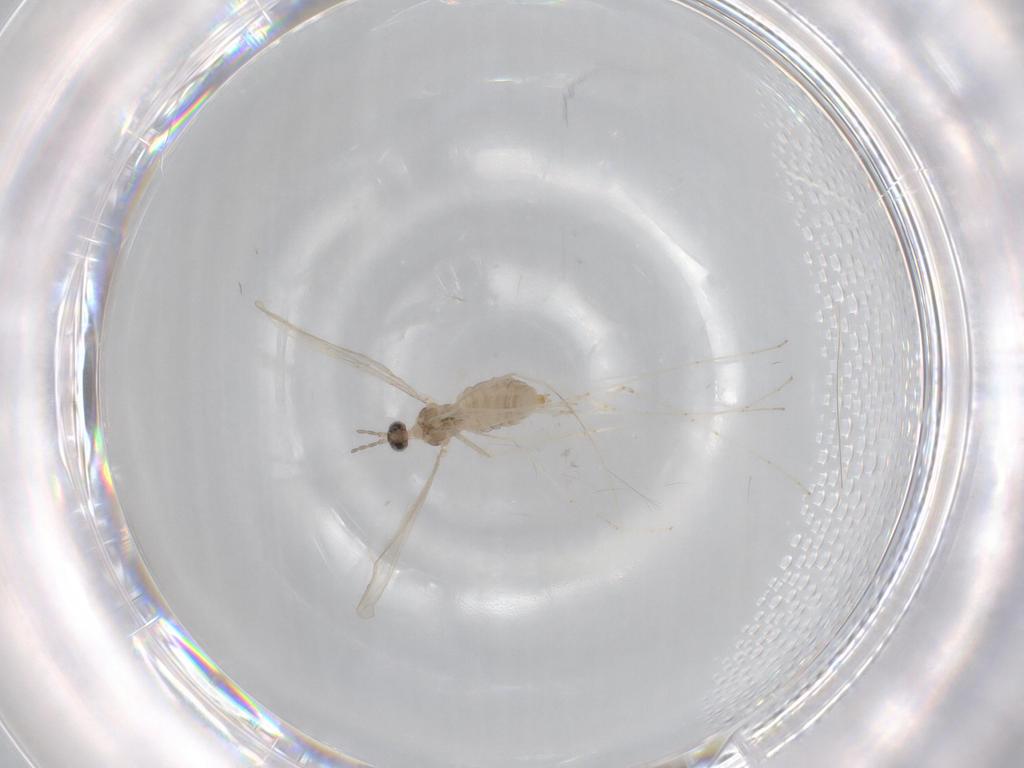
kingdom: Animalia
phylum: Arthropoda
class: Insecta
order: Diptera
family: Cecidomyiidae
